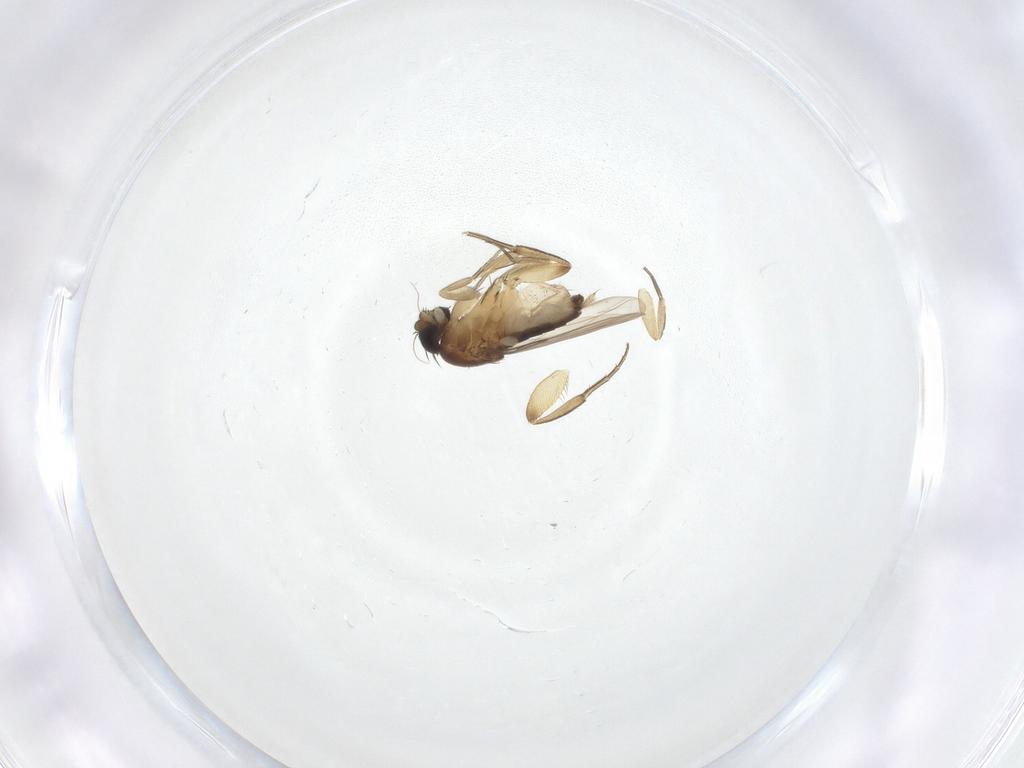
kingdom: Animalia
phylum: Arthropoda
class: Insecta
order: Diptera
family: Phoridae
